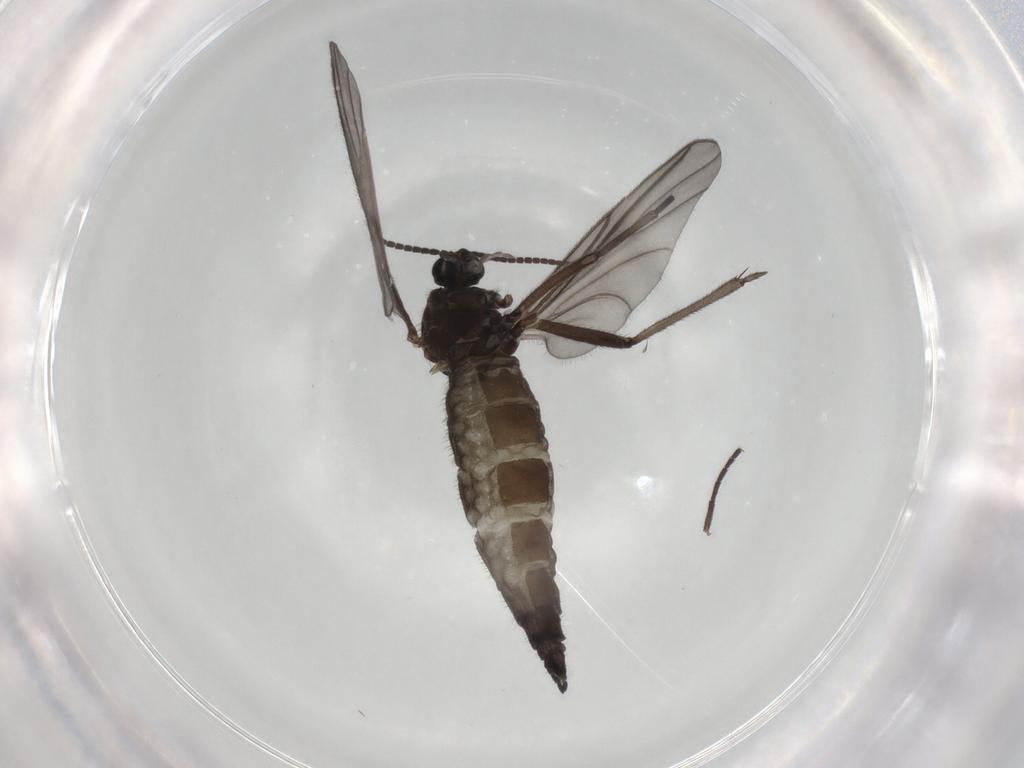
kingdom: Animalia
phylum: Arthropoda
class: Insecta
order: Diptera
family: Sciaridae
